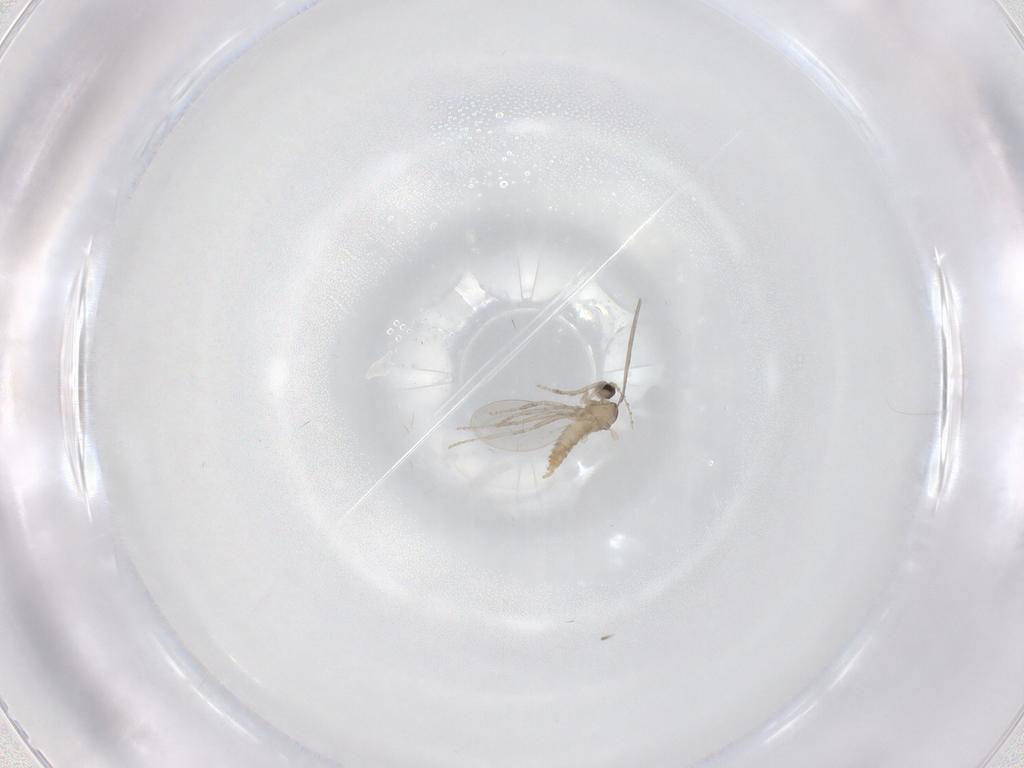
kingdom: Animalia
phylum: Arthropoda
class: Insecta
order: Diptera
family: Cecidomyiidae
